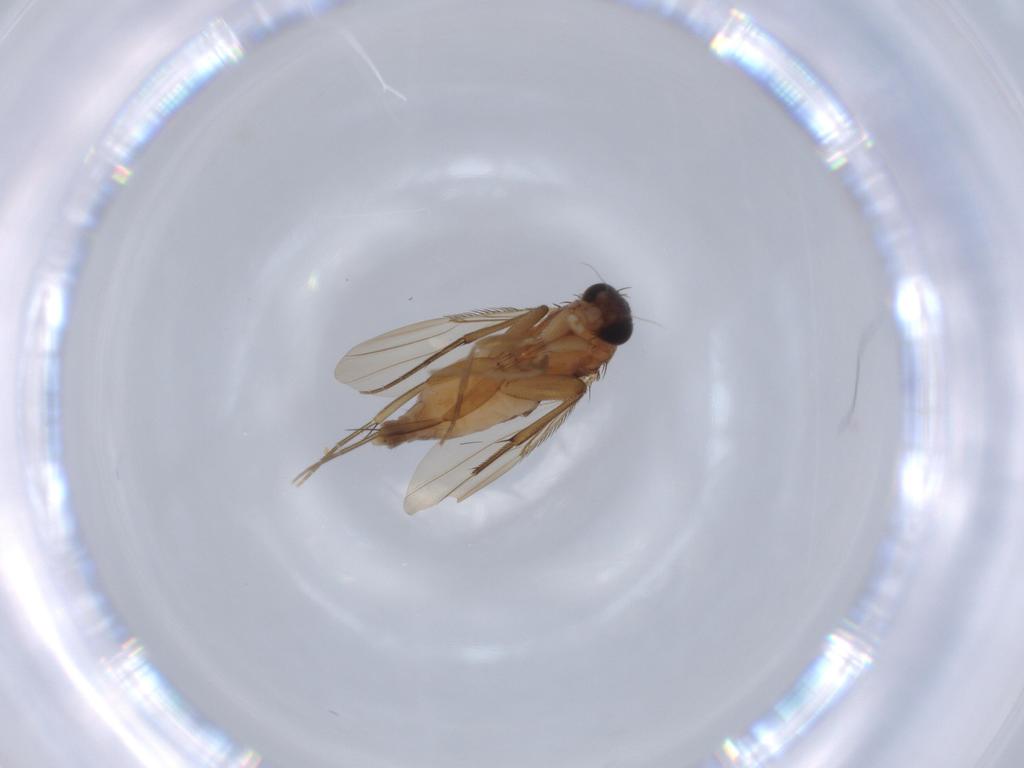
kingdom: Animalia
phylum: Arthropoda
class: Insecta
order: Diptera
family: Phoridae
